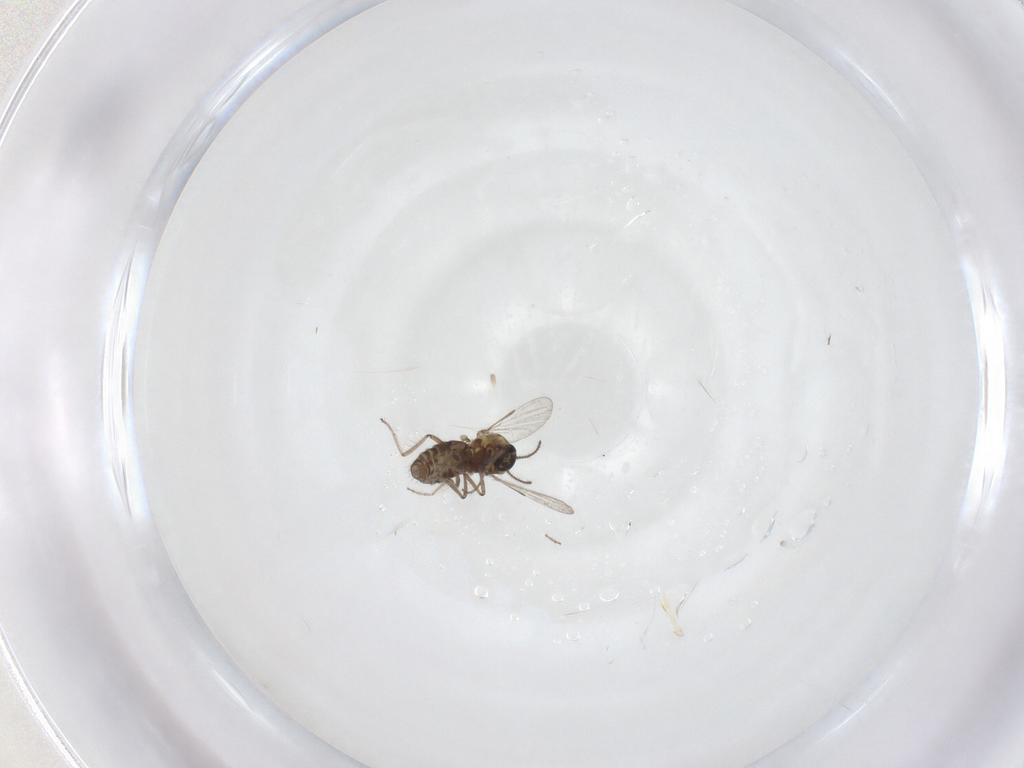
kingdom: Animalia
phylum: Arthropoda
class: Insecta
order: Diptera
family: Ceratopogonidae
